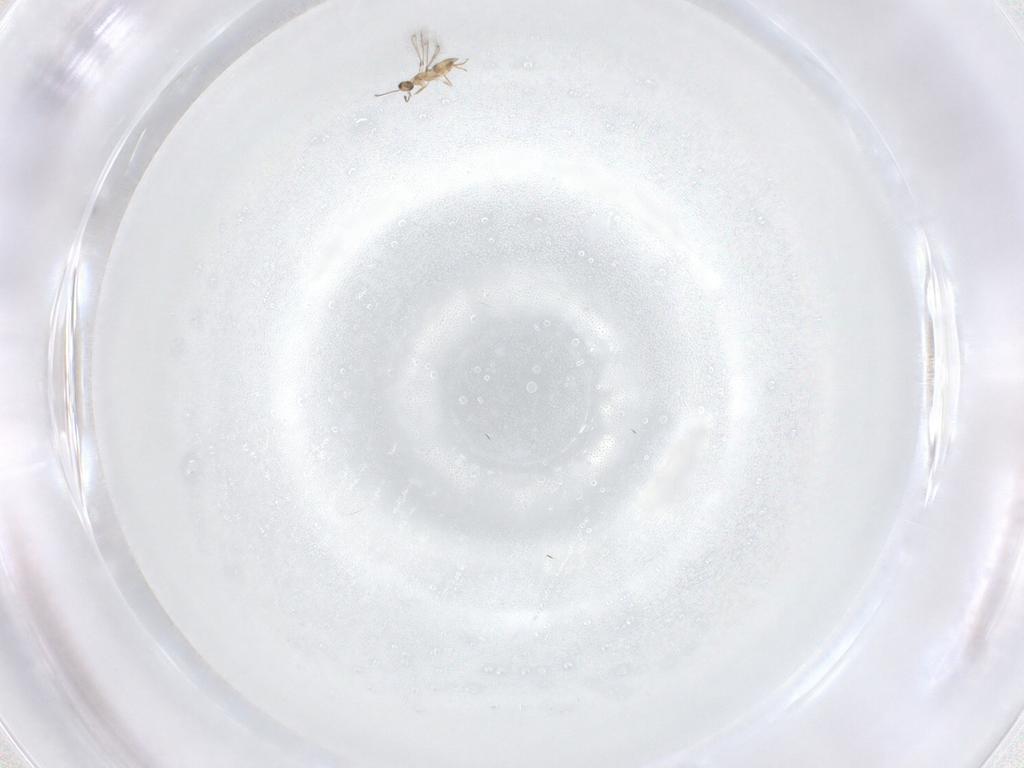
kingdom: Animalia
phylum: Arthropoda
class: Insecta
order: Hymenoptera
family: Mymaridae
